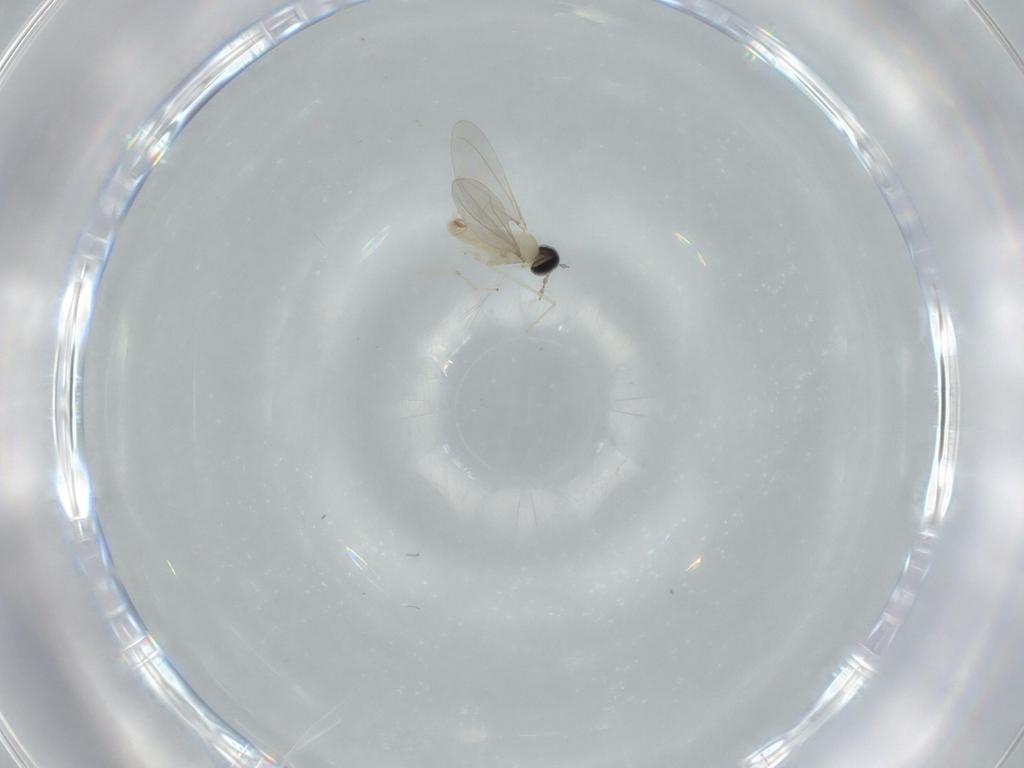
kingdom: Animalia
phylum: Arthropoda
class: Insecta
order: Diptera
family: Cecidomyiidae
